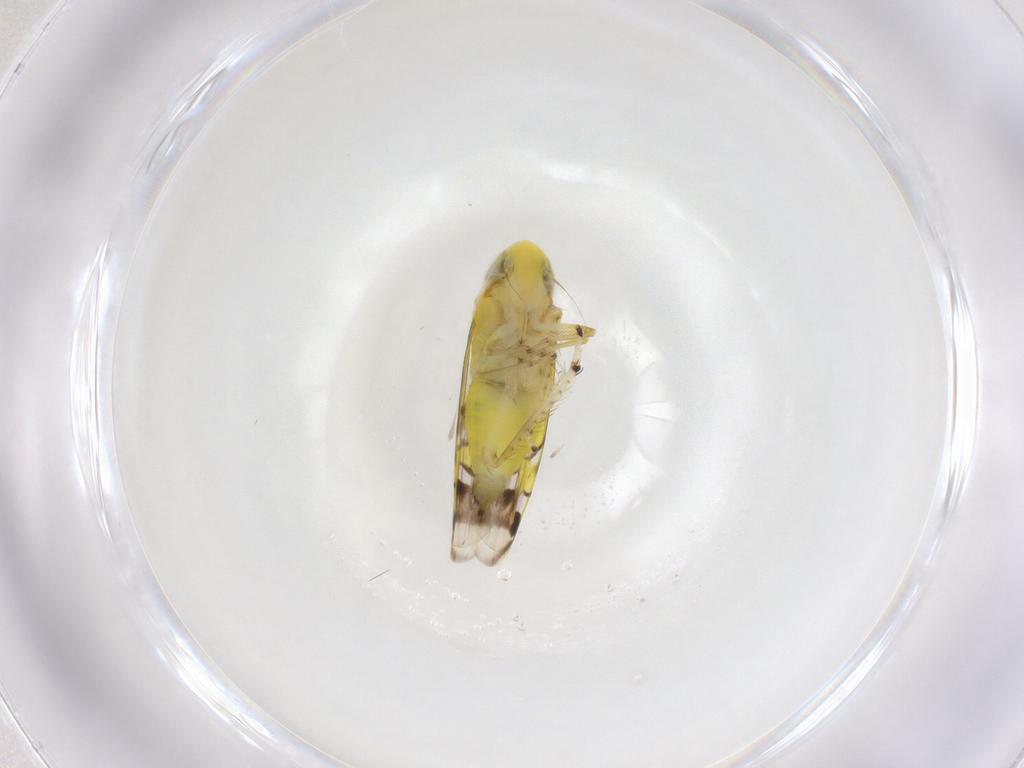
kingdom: Animalia
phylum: Arthropoda
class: Insecta
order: Hemiptera
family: Cicadellidae
